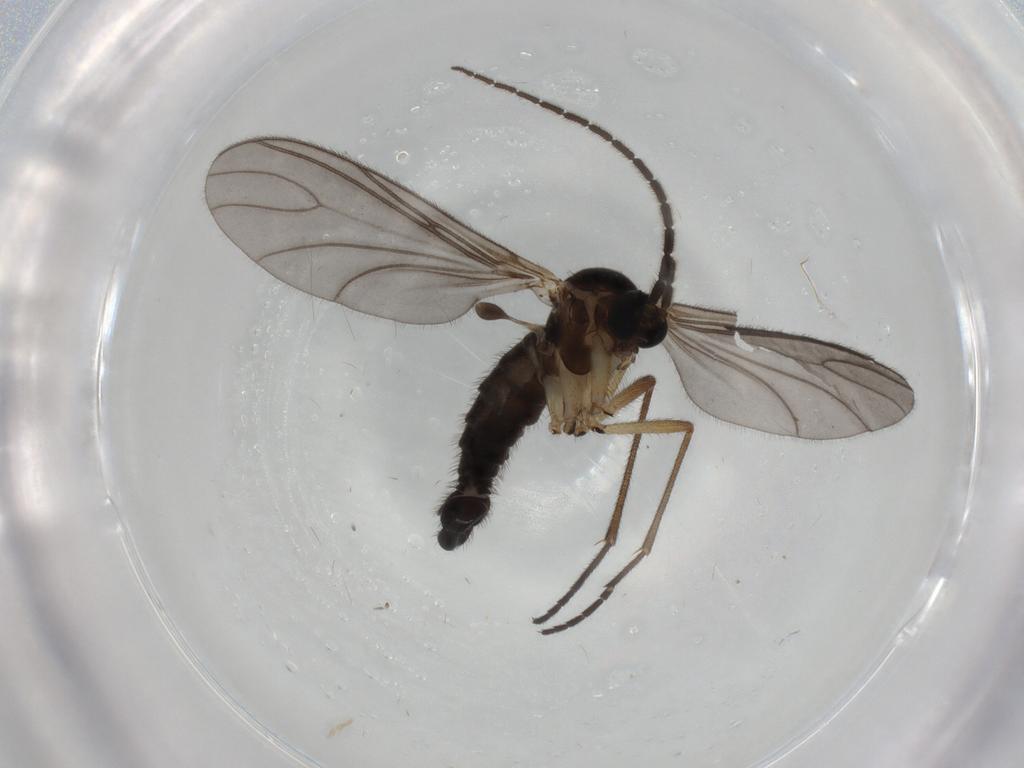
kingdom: Animalia
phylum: Arthropoda
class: Insecta
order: Diptera
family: Sciaridae
